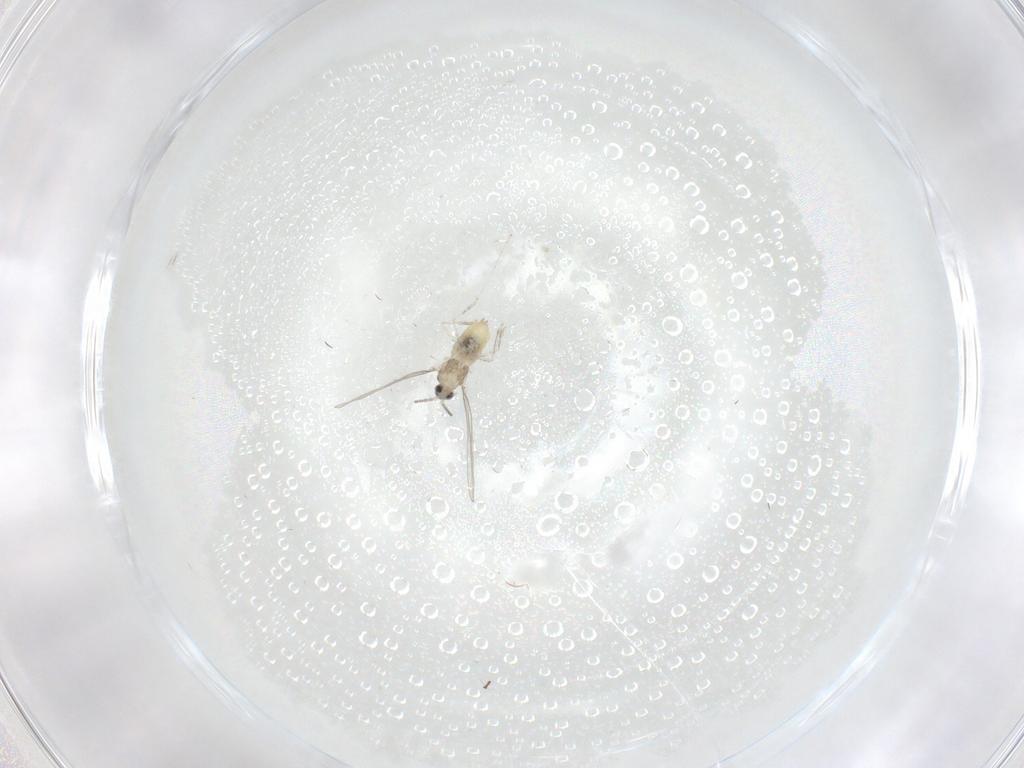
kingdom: Animalia
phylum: Arthropoda
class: Insecta
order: Diptera
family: Cecidomyiidae
